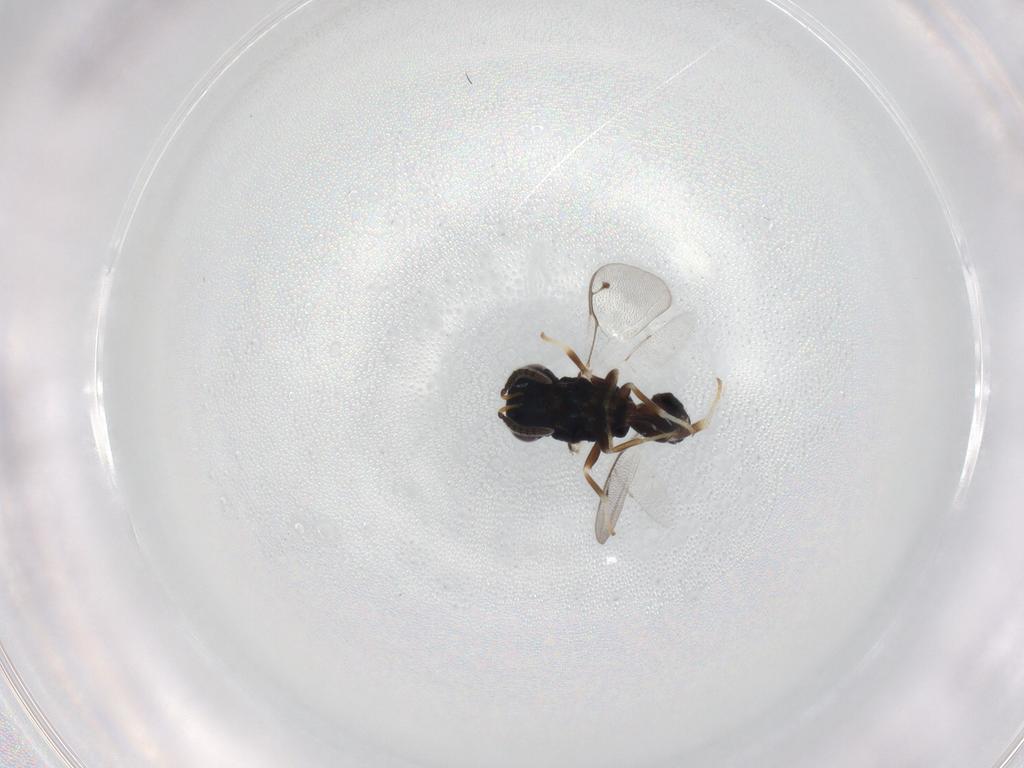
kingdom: Animalia
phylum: Arthropoda
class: Insecta
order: Hymenoptera
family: Pteromalidae
